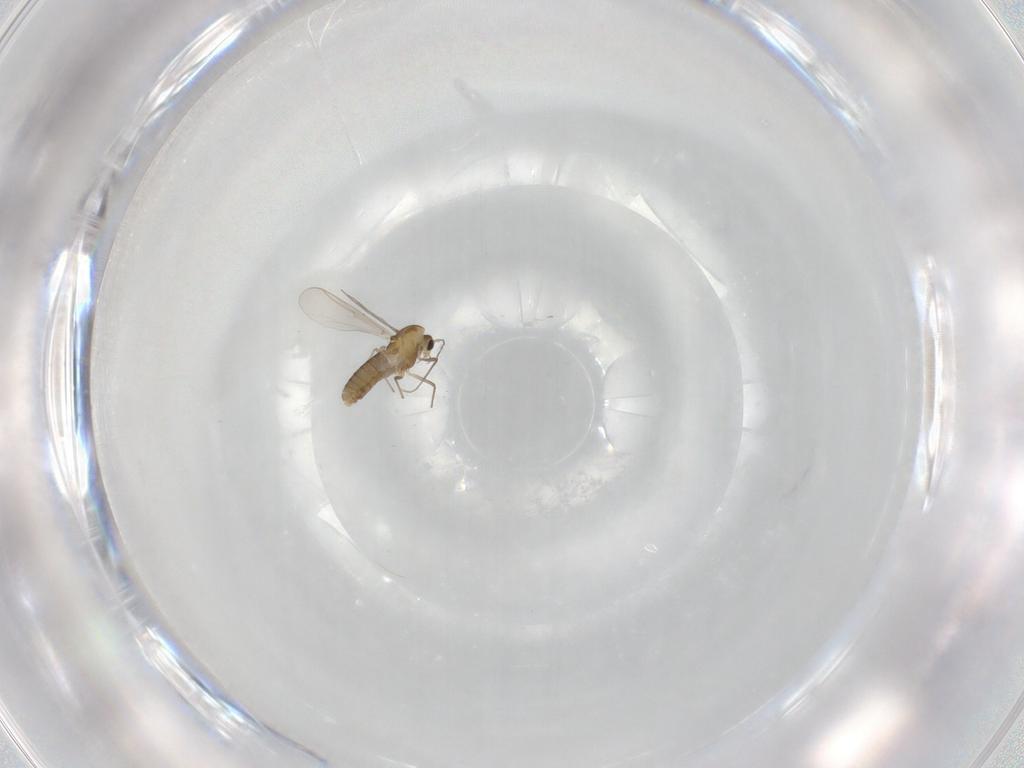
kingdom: Animalia
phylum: Arthropoda
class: Insecta
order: Diptera
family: Chironomidae
